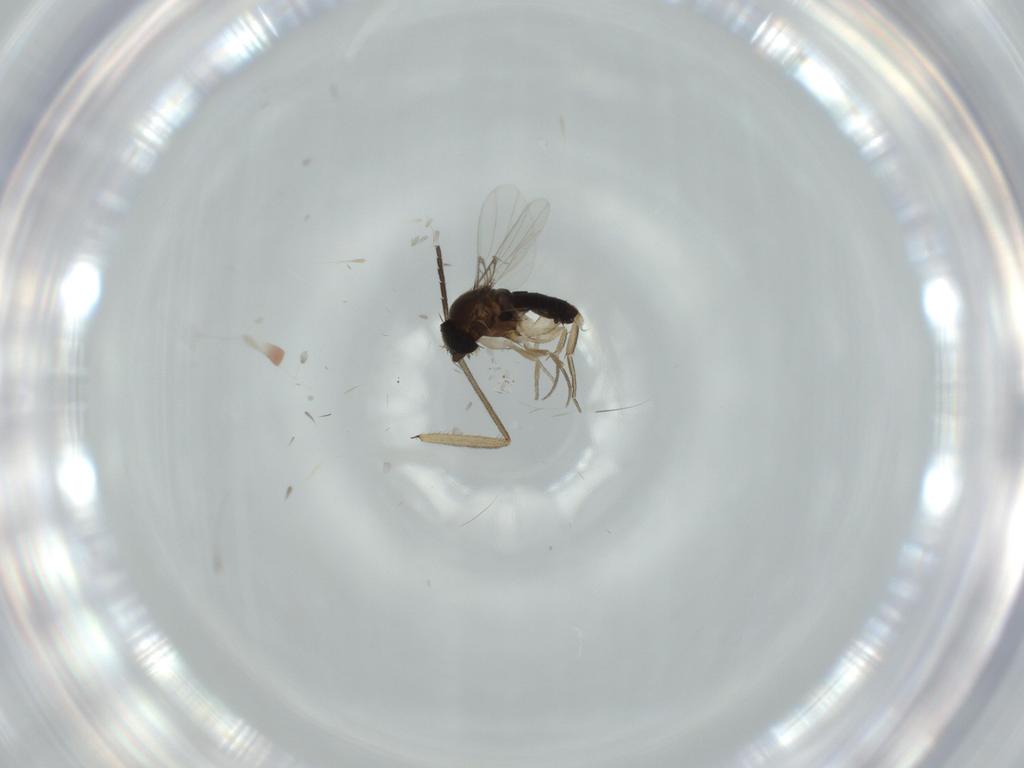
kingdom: Animalia
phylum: Arthropoda
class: Insecta
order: Diptera
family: Phoridae
